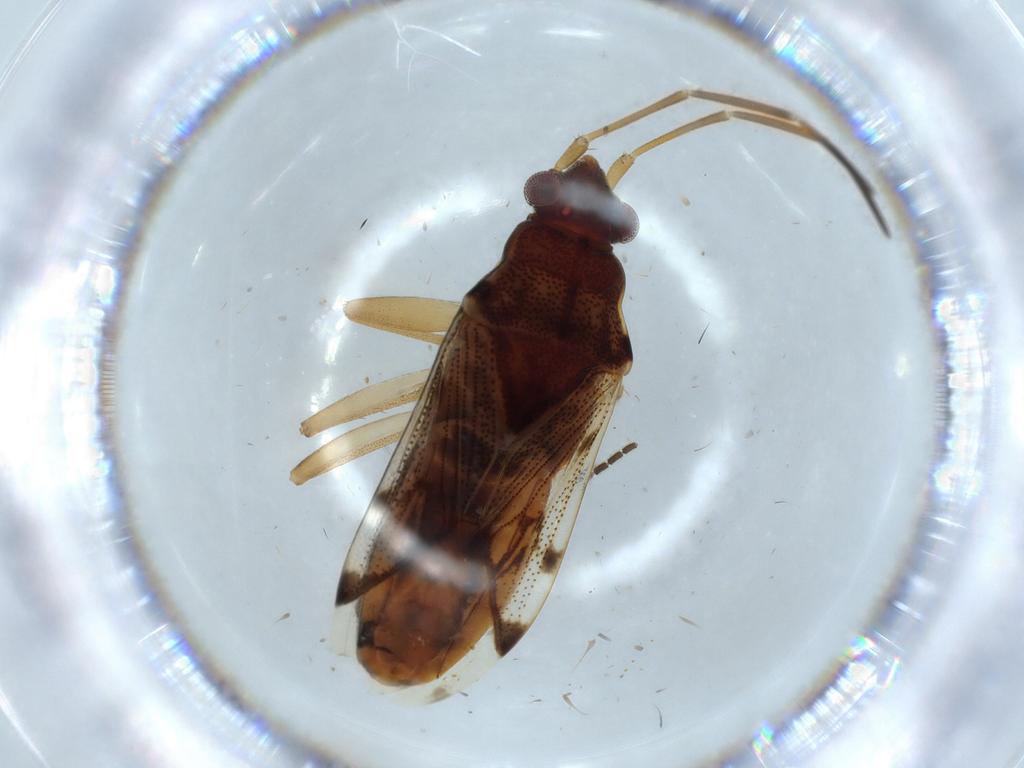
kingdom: Animalia
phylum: Arthropoda
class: Insecta
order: Hemiptera
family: Rhyparochromidae
